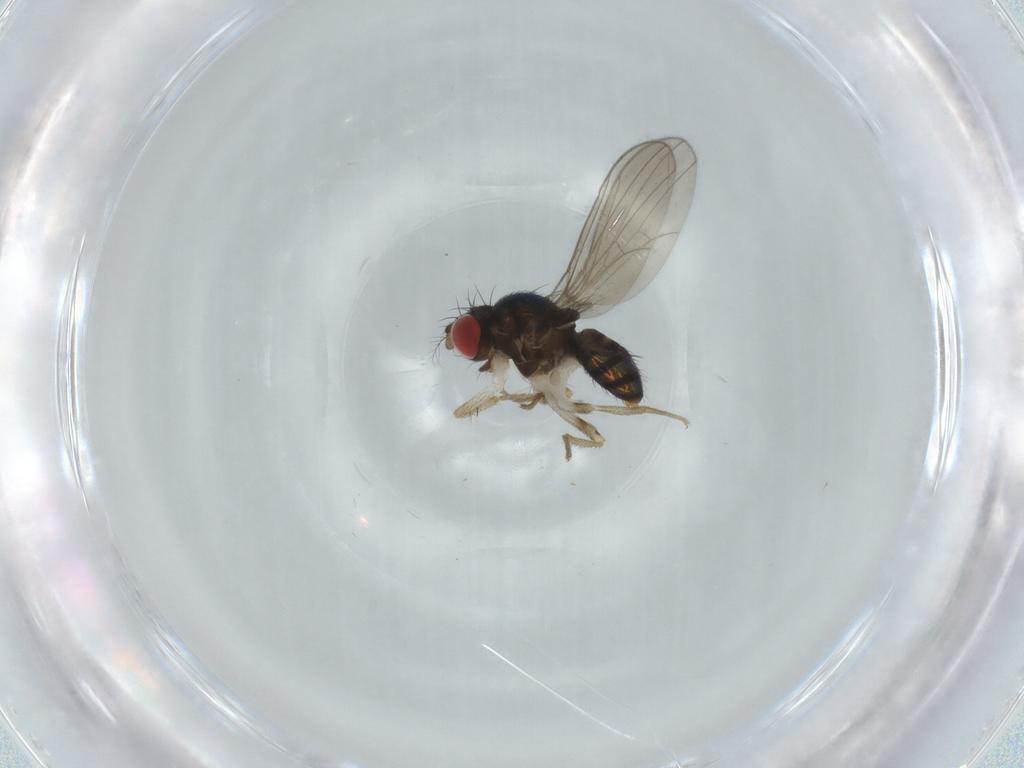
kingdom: Animalia
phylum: Arthropoda
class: Insecta
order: Diptera
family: Drosophilidae
